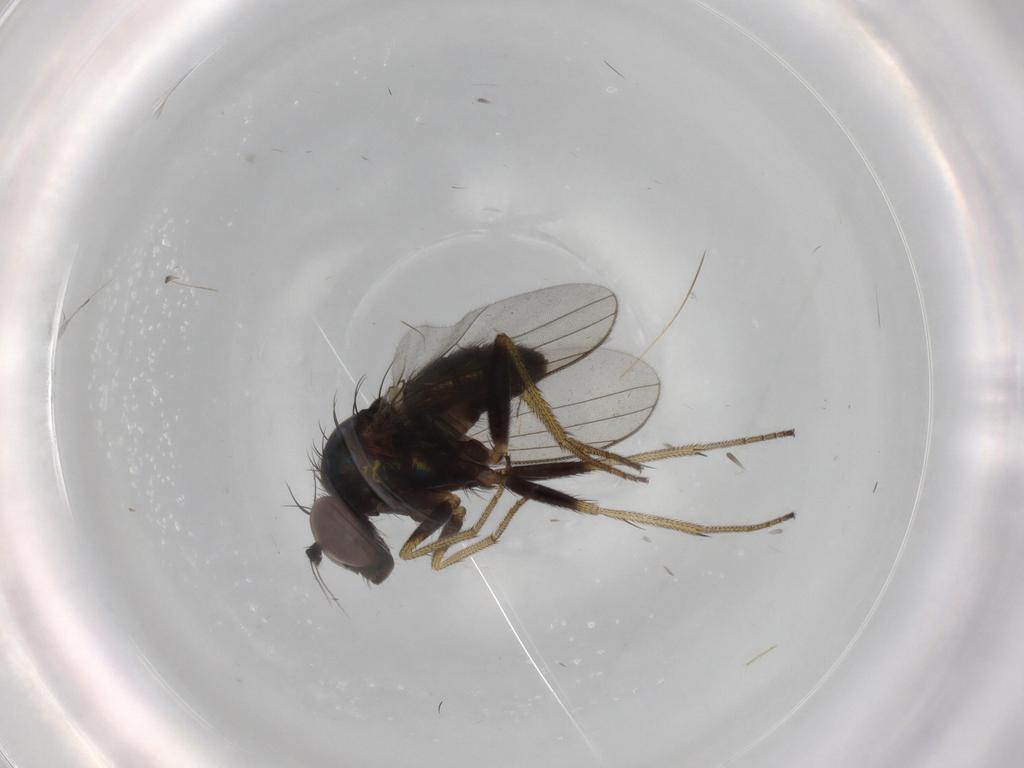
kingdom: Animalia
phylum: Arthropoda
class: Insecta
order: Diptera
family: Dolichopodidae
